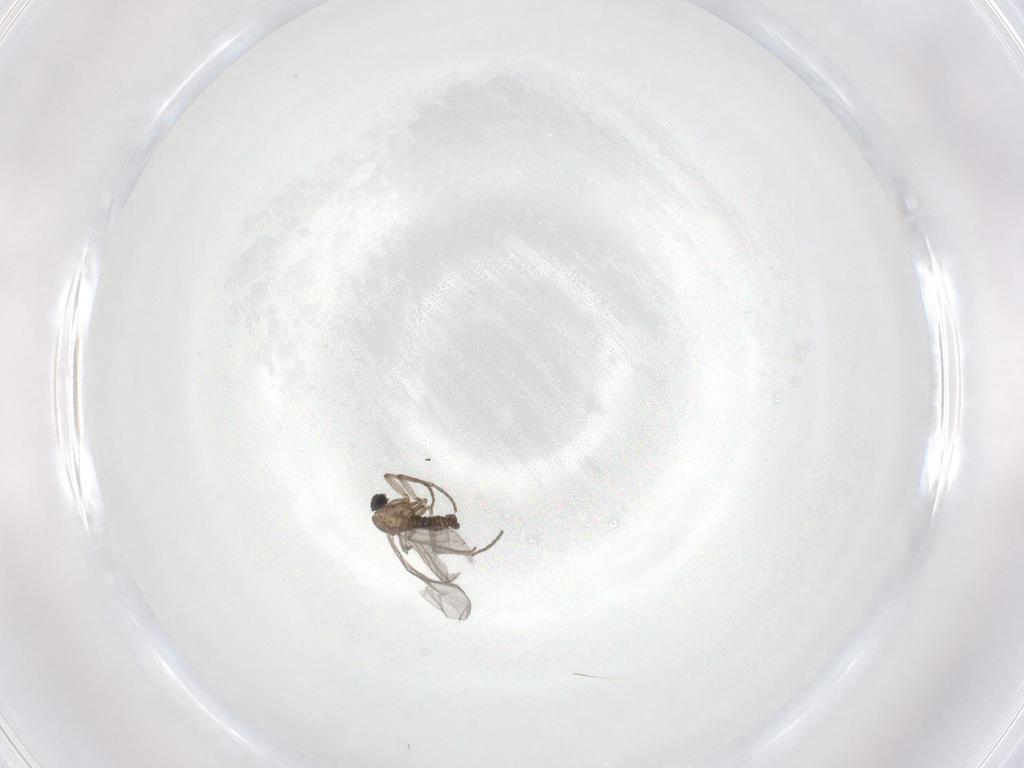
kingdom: Animalia
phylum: Arthropoda
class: Insecta
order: Diptera
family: Sciaridae
